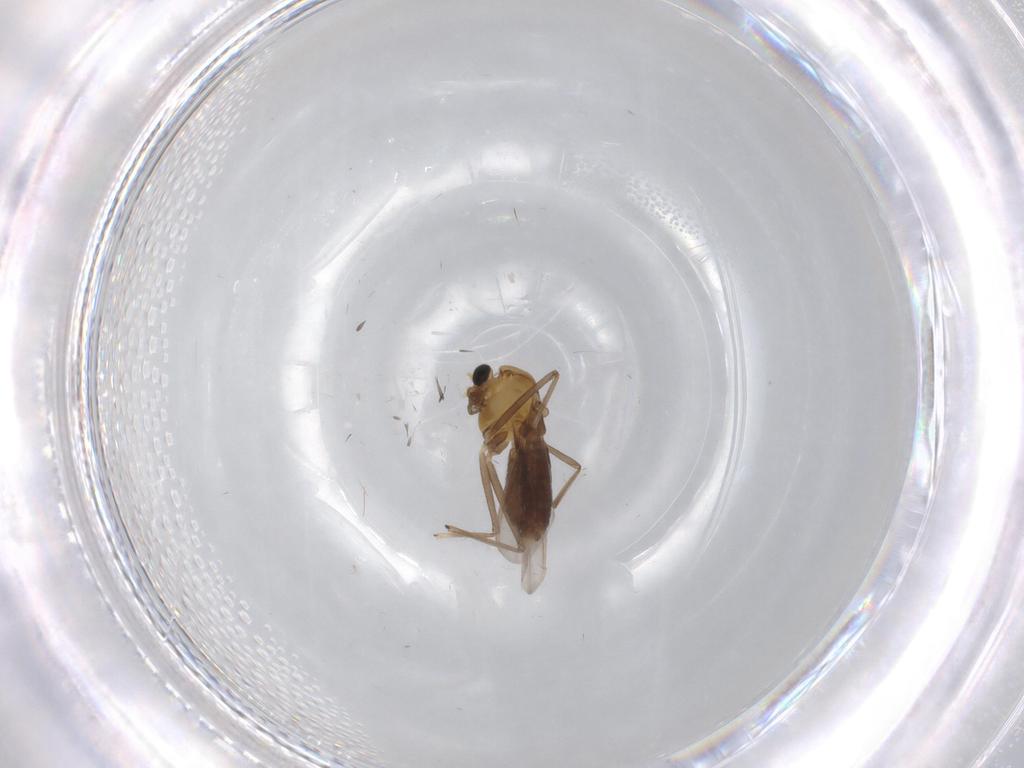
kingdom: Animalia
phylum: Arthropoda
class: Insecta
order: Diptera
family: Chironomidae
